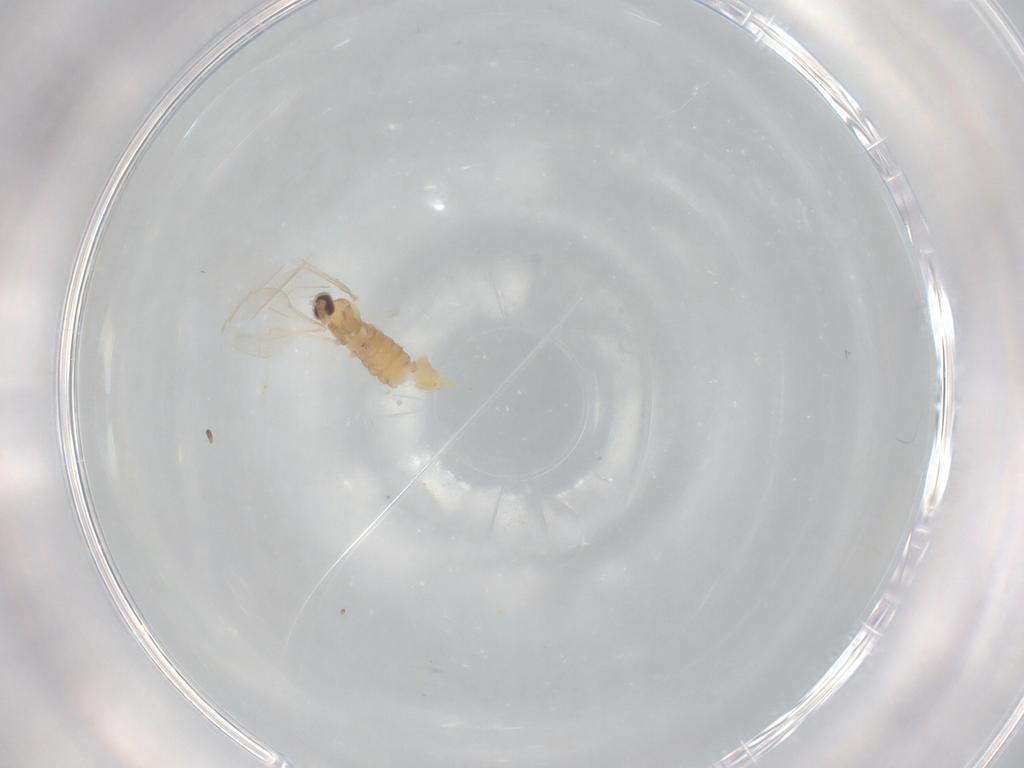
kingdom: Animalia
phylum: Arthropoda
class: Insecta
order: Diptera
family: Cecidomyiidae
